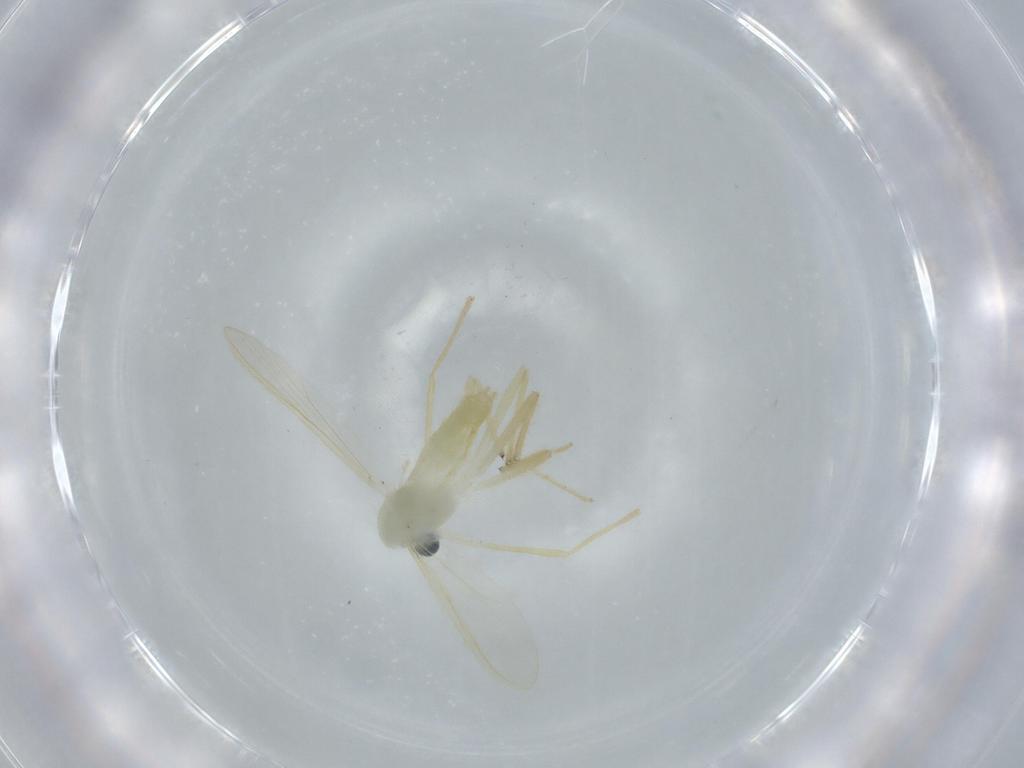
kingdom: Animalia
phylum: Arthropoda
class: Insecta
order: Diptera
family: Chironomidae
